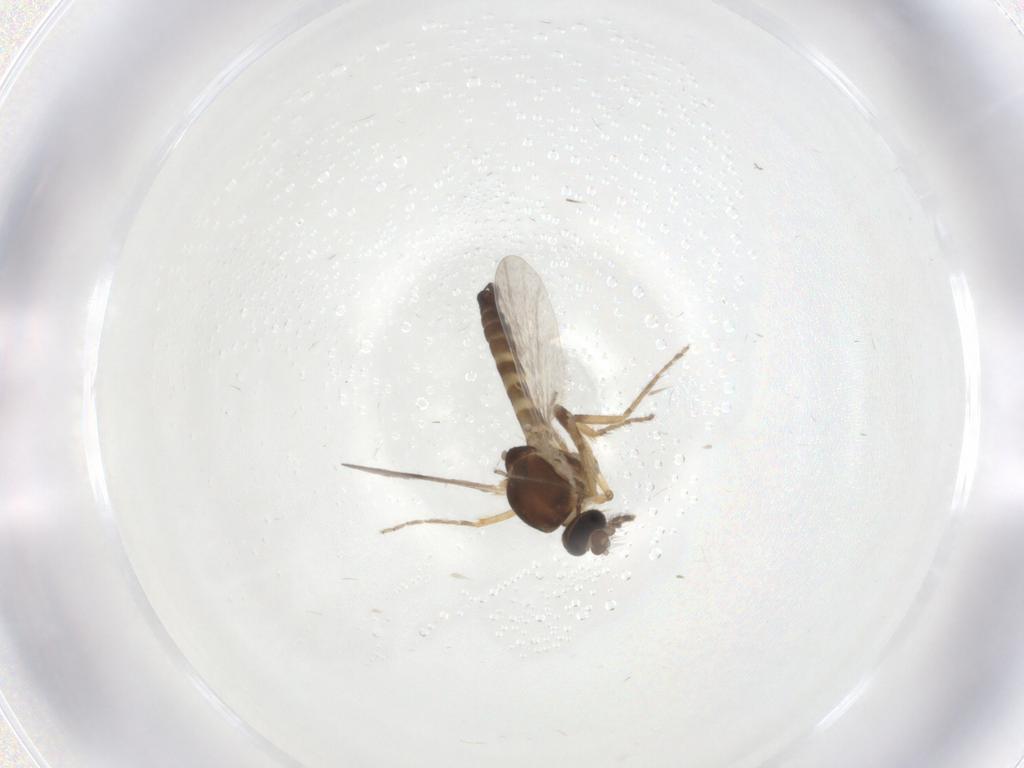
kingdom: Animalia
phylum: Arthropoda
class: Insecta
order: Diptera
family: Ceratopogonidae
